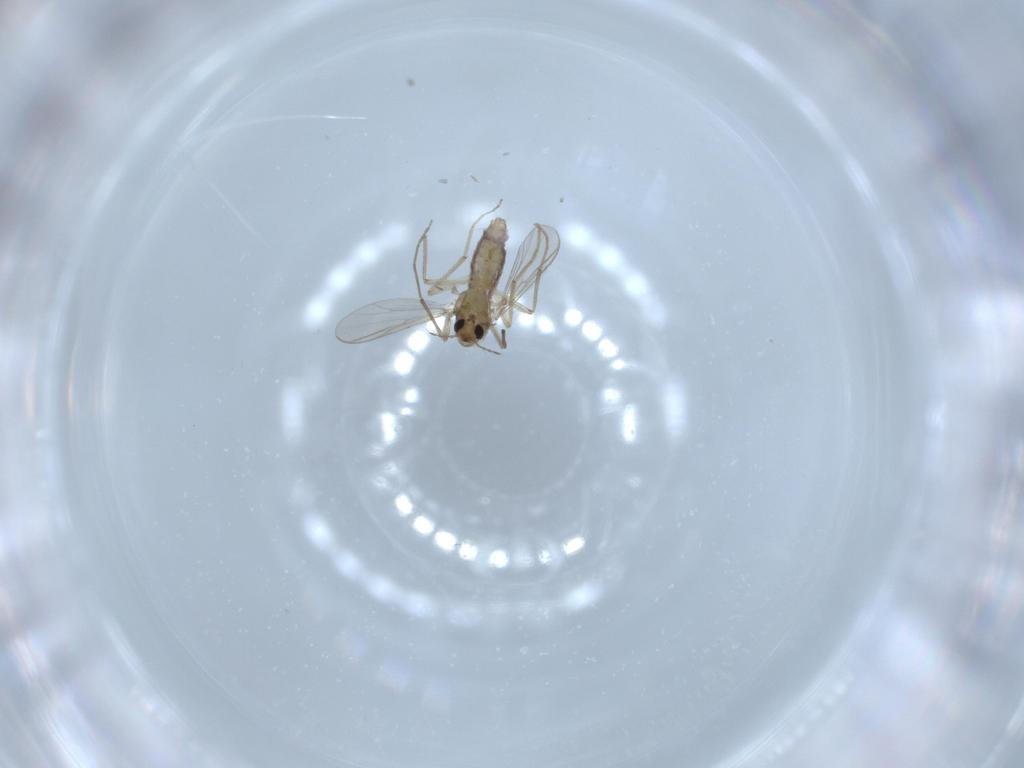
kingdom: Animalia
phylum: Arthropoda
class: Insecta
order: Diptera
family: Chironomidae
